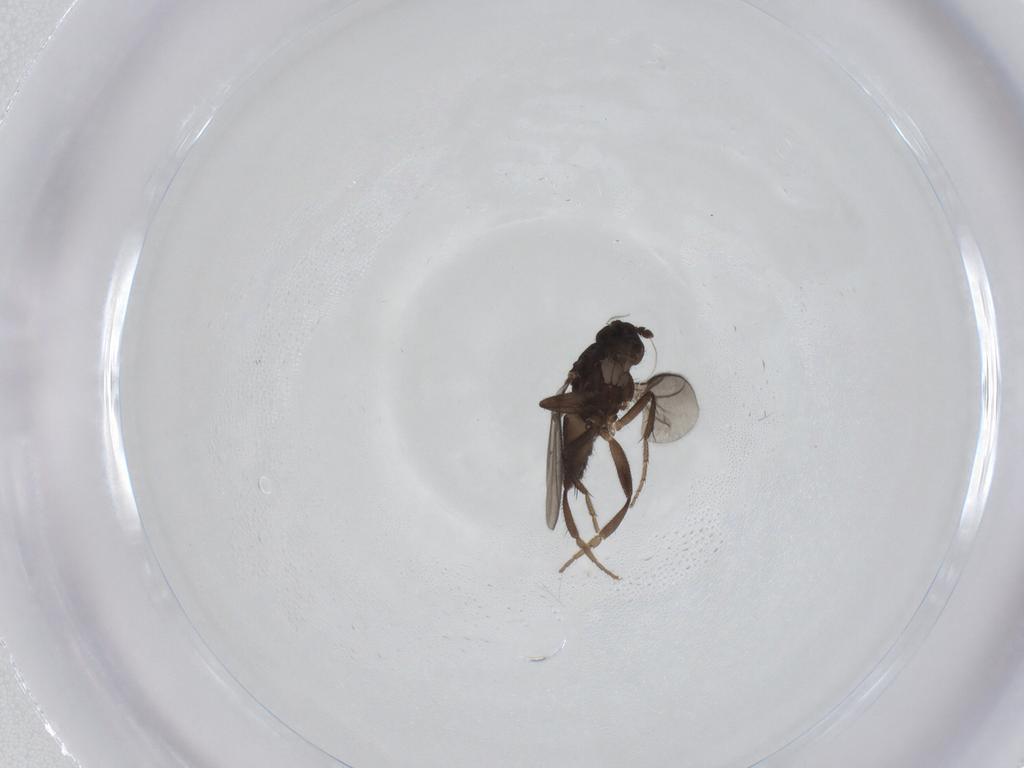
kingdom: Animalia
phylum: Arthropoda
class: Insecta
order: Diptera
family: Sphaeroceridae
